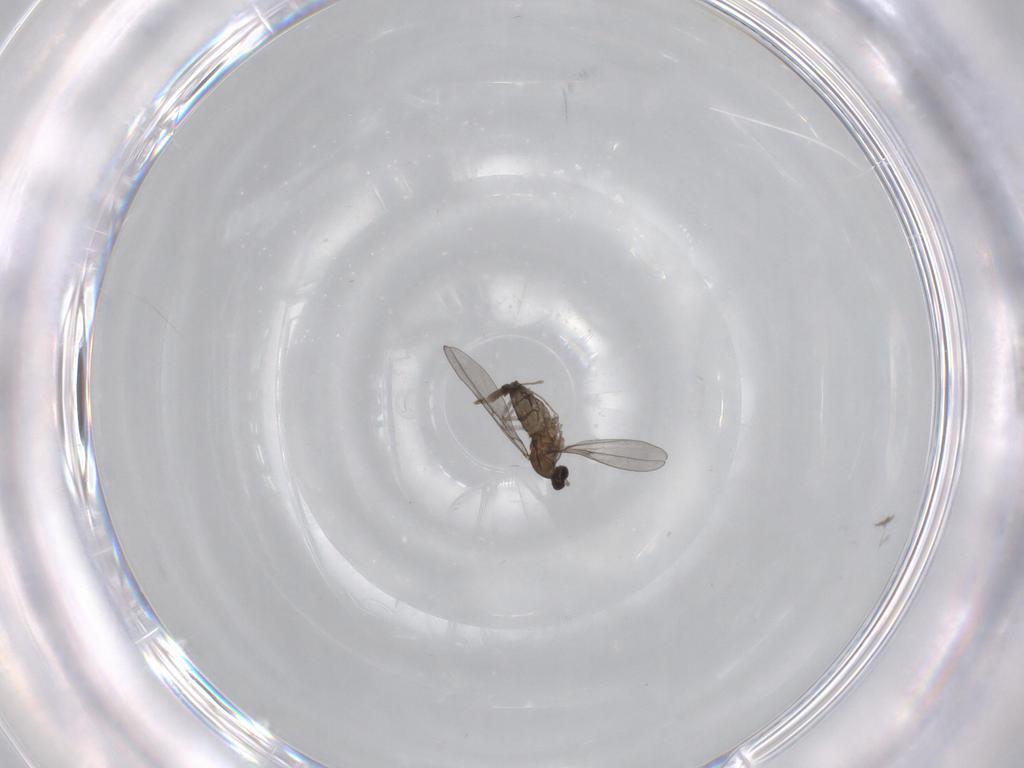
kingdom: Animalia
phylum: Arthropoda
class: Insecta
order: Diptera
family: Cecidomyiidae
